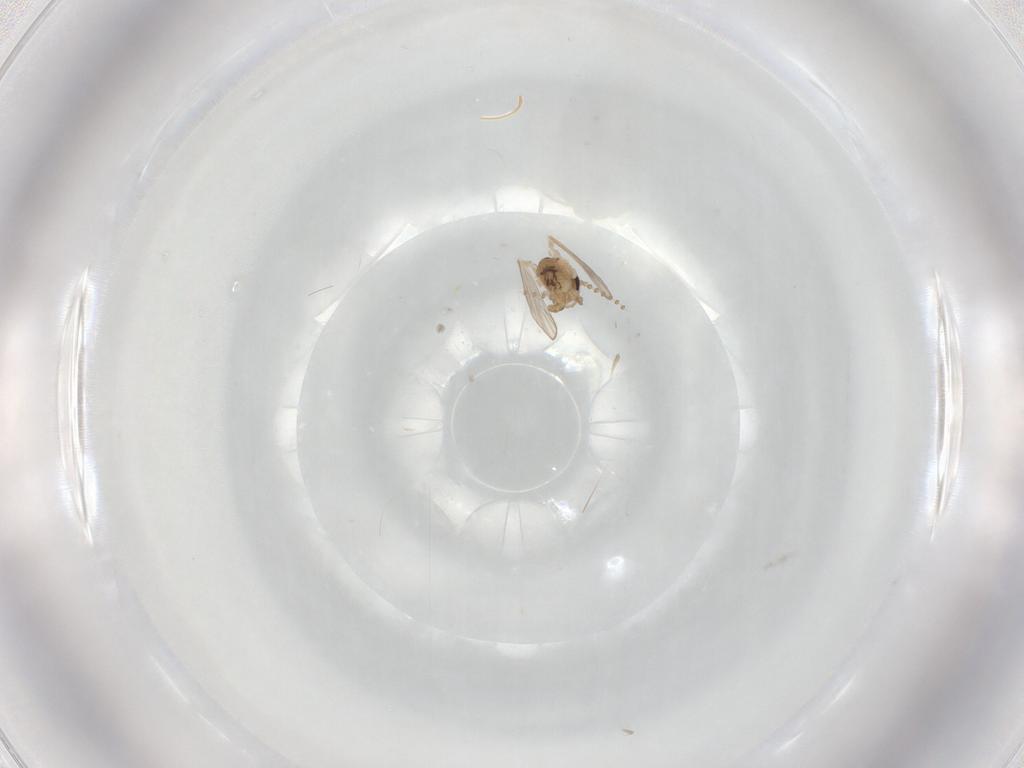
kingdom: Animalia
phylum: Arthropoda
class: Insecta
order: Diptera
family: Psychodidae
